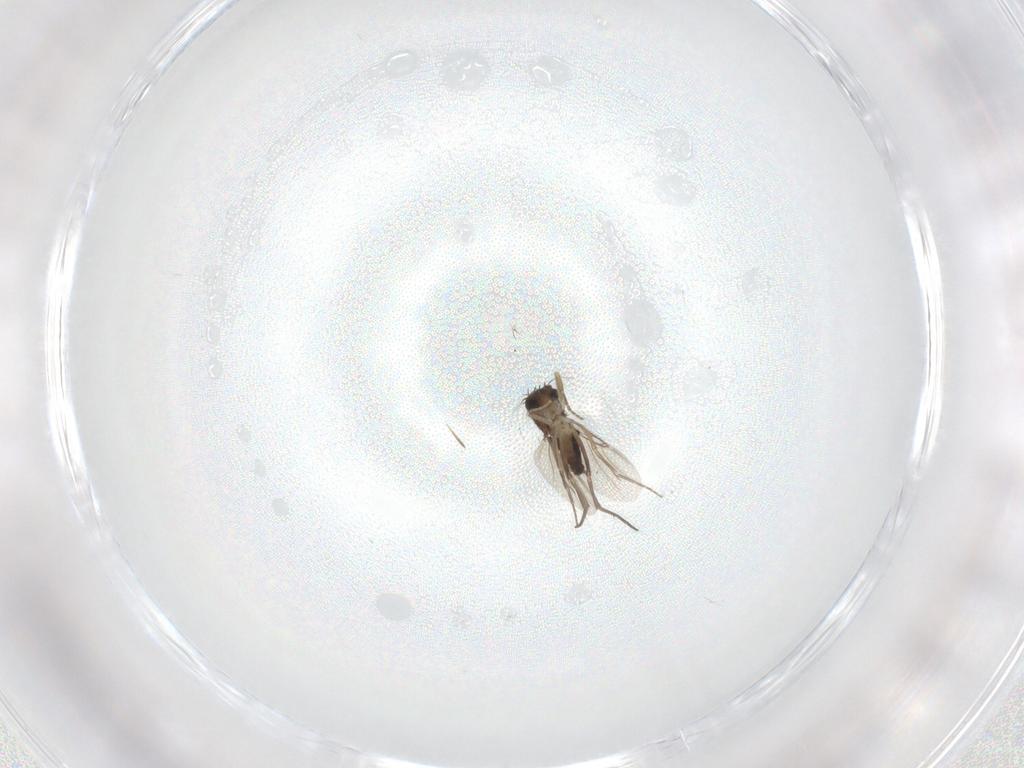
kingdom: Animalia
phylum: Arthropoda
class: Insecta
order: Diptera
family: Phoridae
